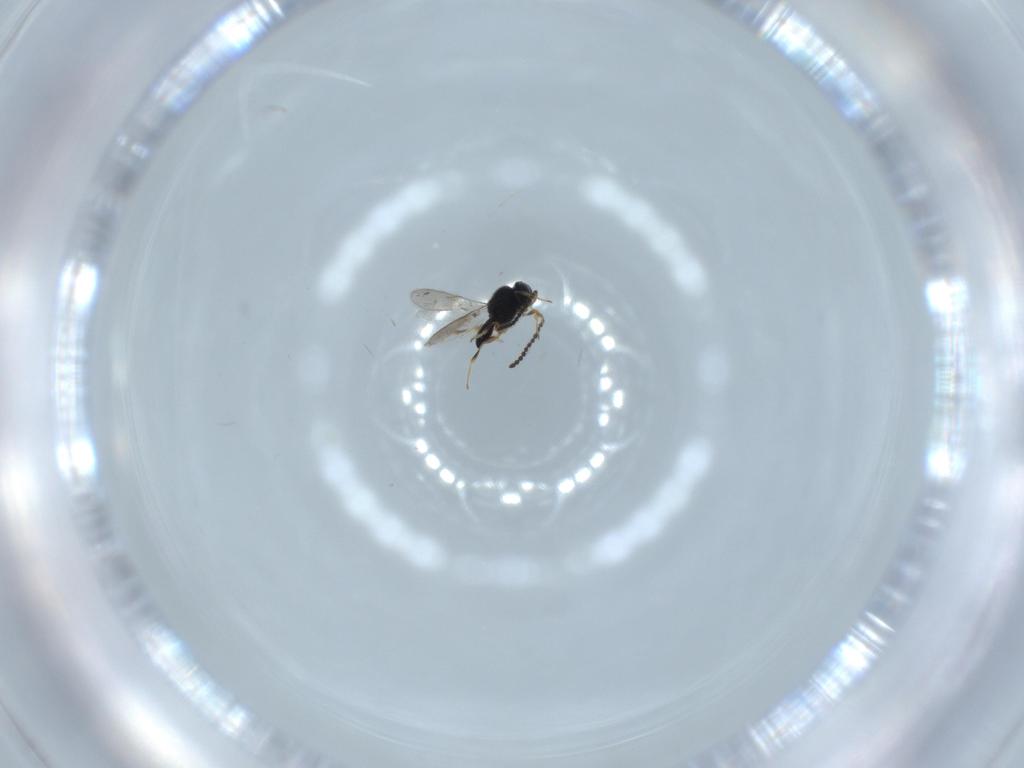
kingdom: Animalia
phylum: Arthropoda
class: Insecta
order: Hymenoptera
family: Scelionidae
